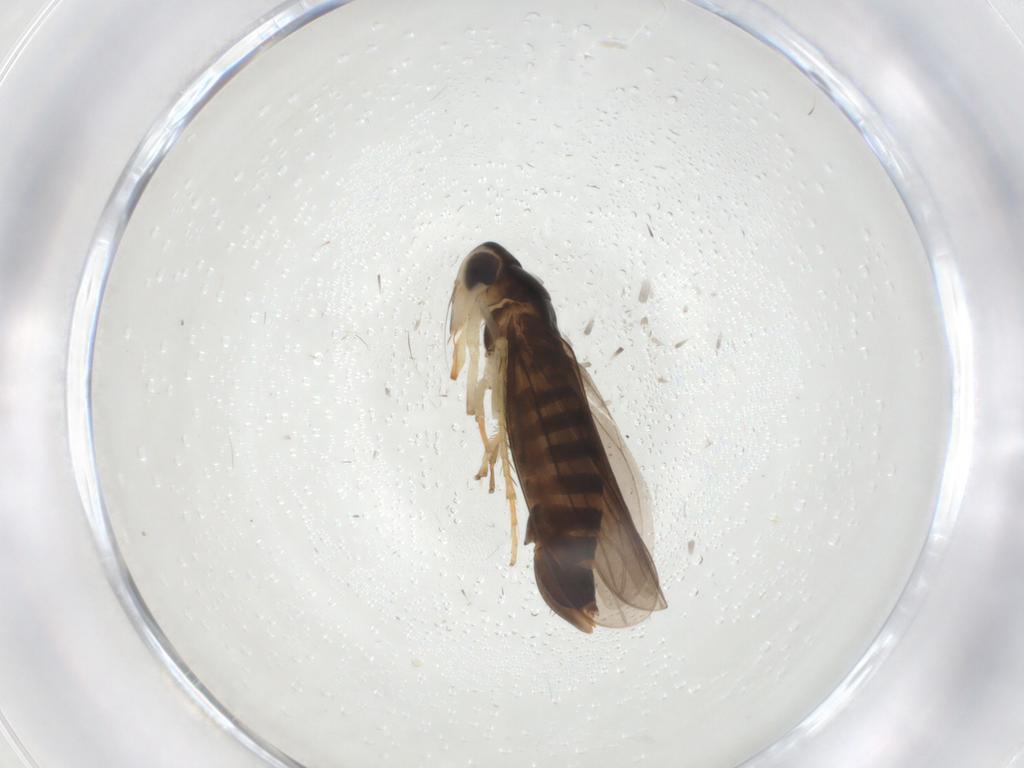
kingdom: Animalia
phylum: Arthropoda
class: Insecta
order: Hemiptera
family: Cicadellidae
